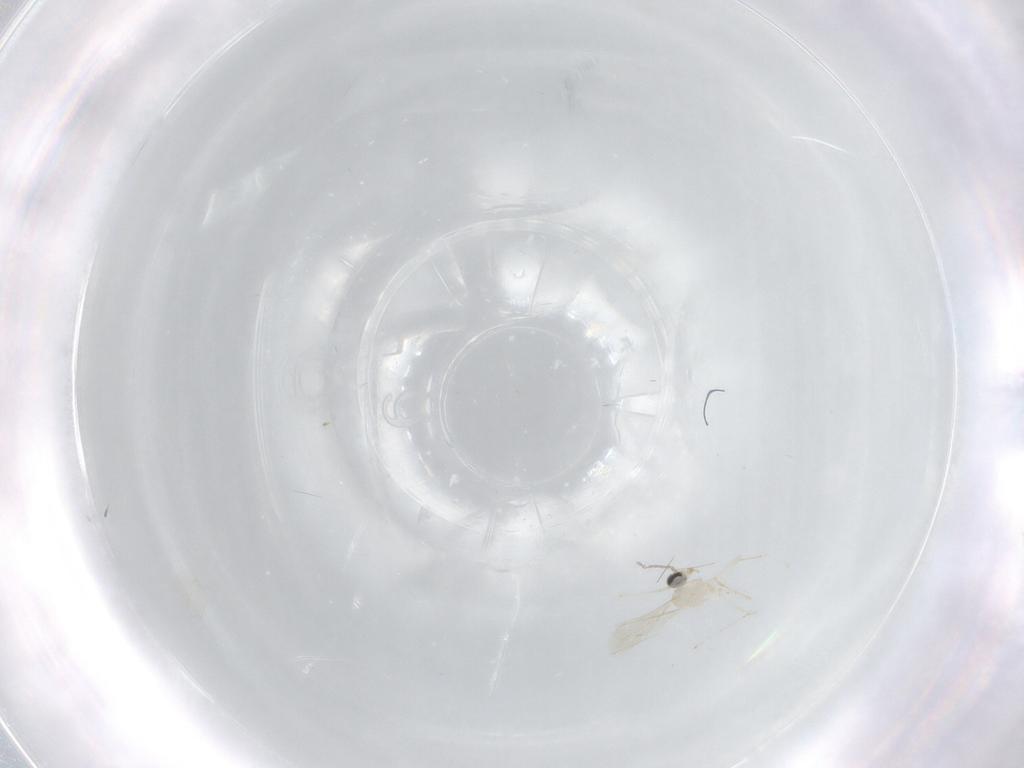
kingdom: Animalia
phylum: Arthropoda
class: Insecta
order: Diptera
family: Cecidomyiidae
